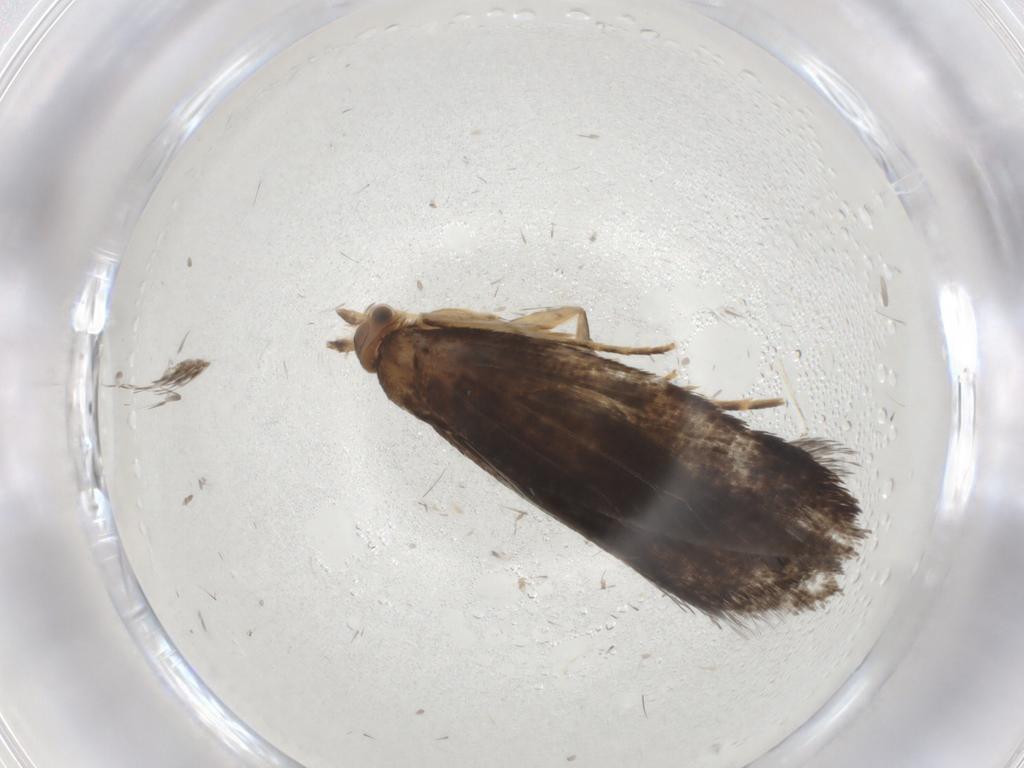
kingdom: Animalia
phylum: Arthropoda
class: Insecta
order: Lepidoptera
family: Tineidae
